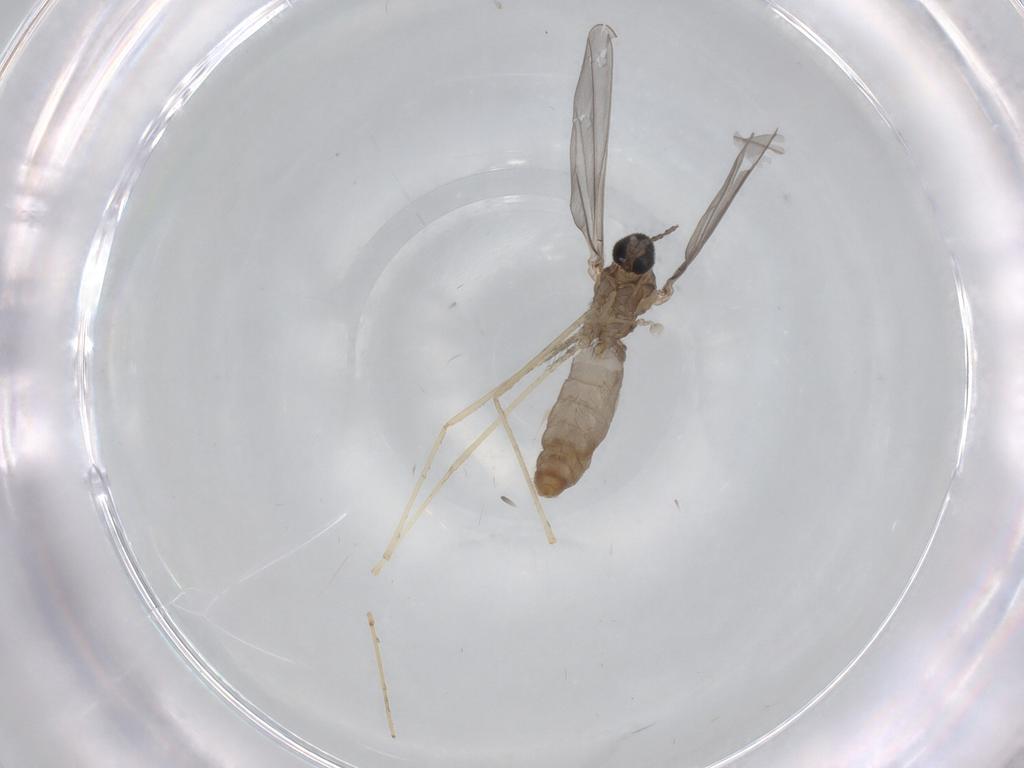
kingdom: Animalia
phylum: Arthropoda
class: Insecta
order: Diptera
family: Cecidomyiidae
